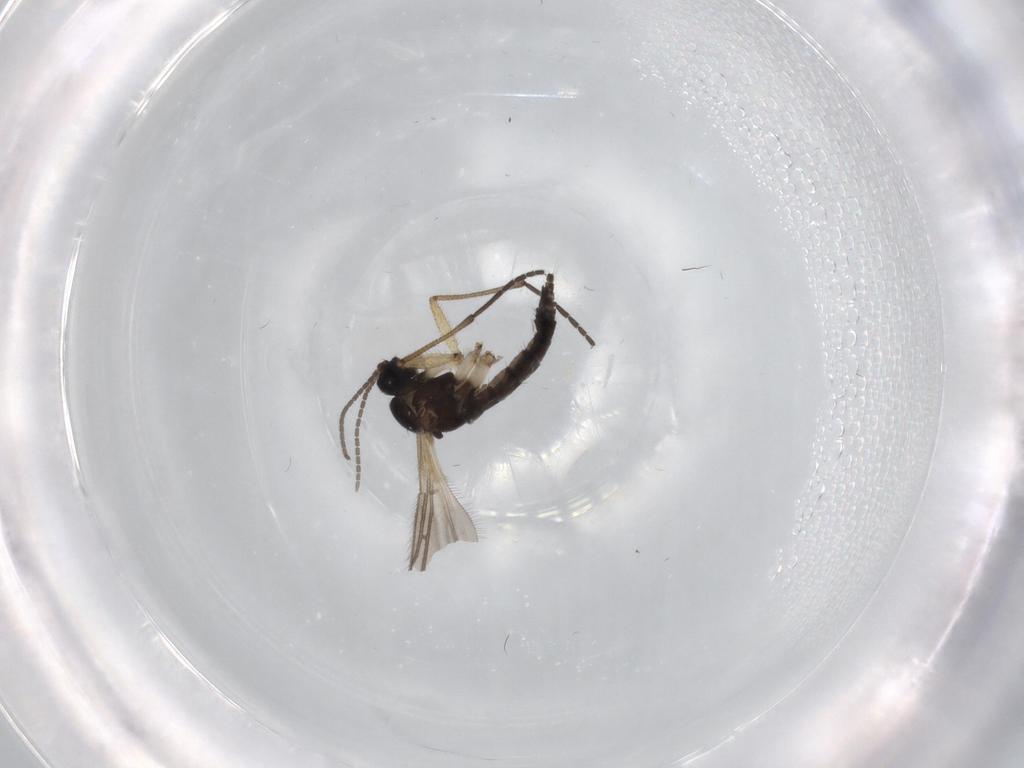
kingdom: Animalia
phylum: Arthropoda
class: Insecta
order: Diptera
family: Sciaridae
